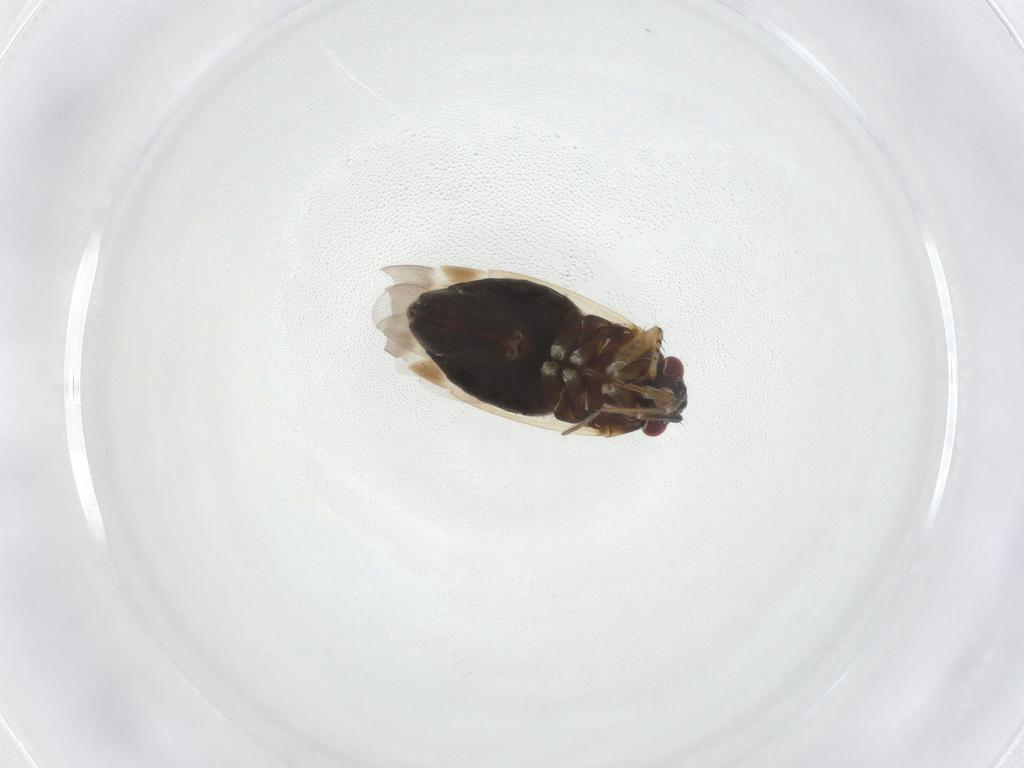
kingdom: Animalia
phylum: Arthropoda
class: Insecta
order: Hemiptera
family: Miridae
